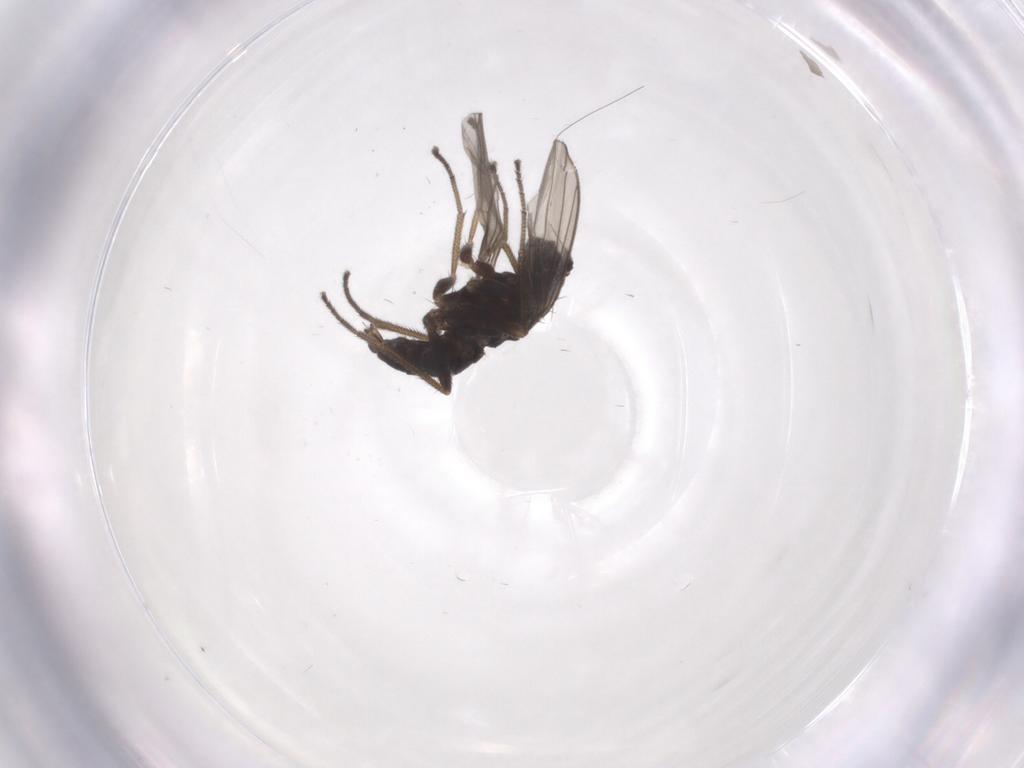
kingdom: Animalia
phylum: Arthropoda
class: Insecta
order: Diptera
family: Dolichopodidae
